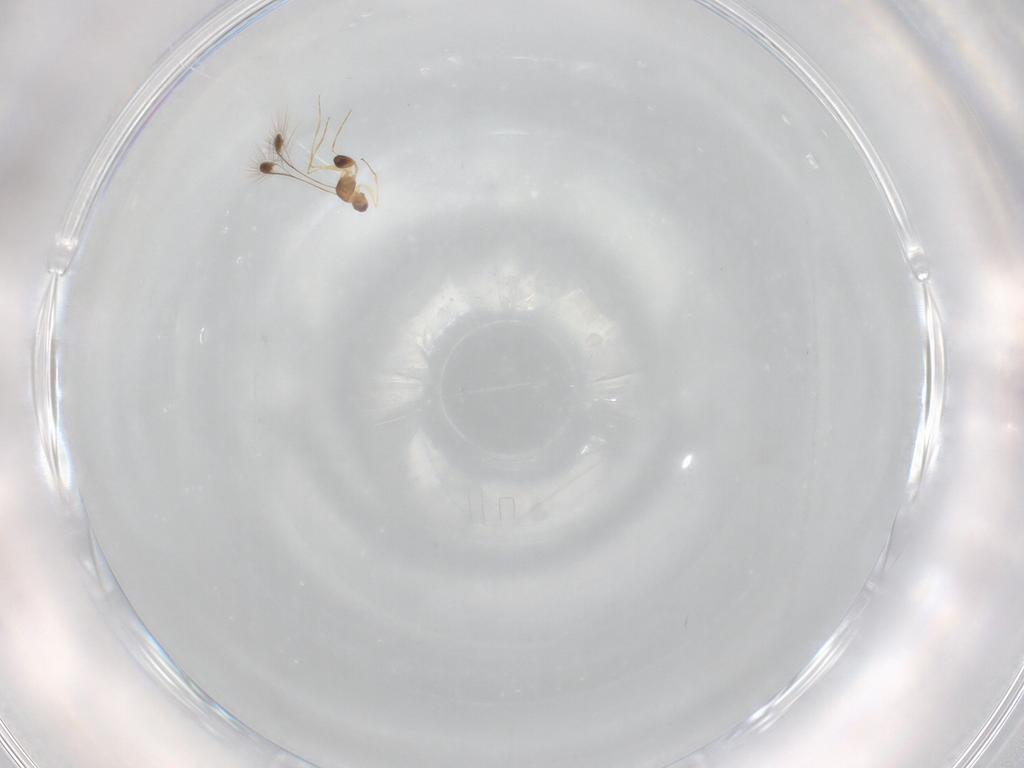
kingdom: Animalia
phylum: Arthropoda
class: Insecta
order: Hymenoptera
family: Mymaridae
